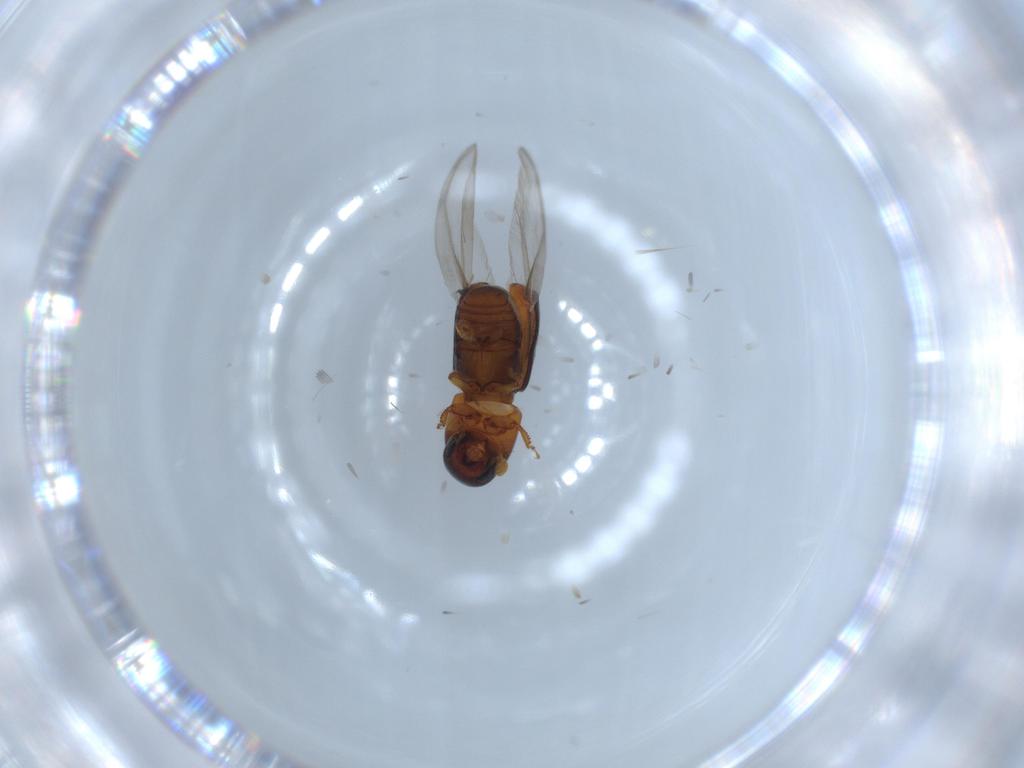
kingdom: Animalia
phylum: Arthropoda
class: Insecta
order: Coleoptera
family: Curculionidae
